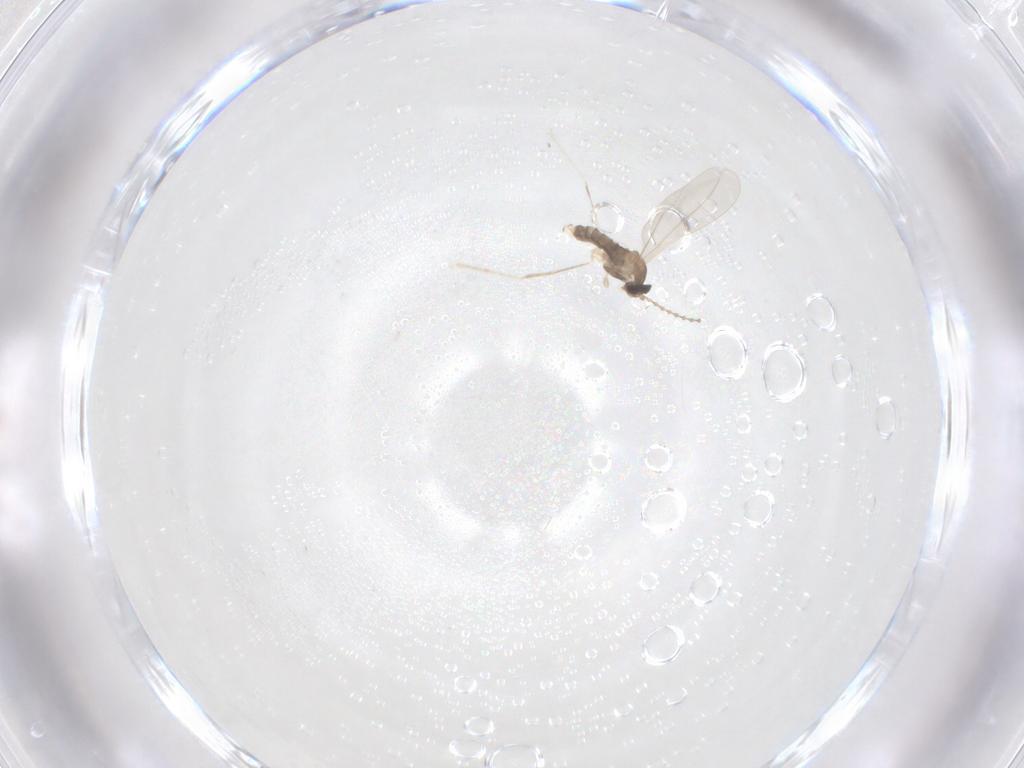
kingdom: Animalia
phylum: Arthropoda
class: Insecta
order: Diptera
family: Cecidomyiidae
